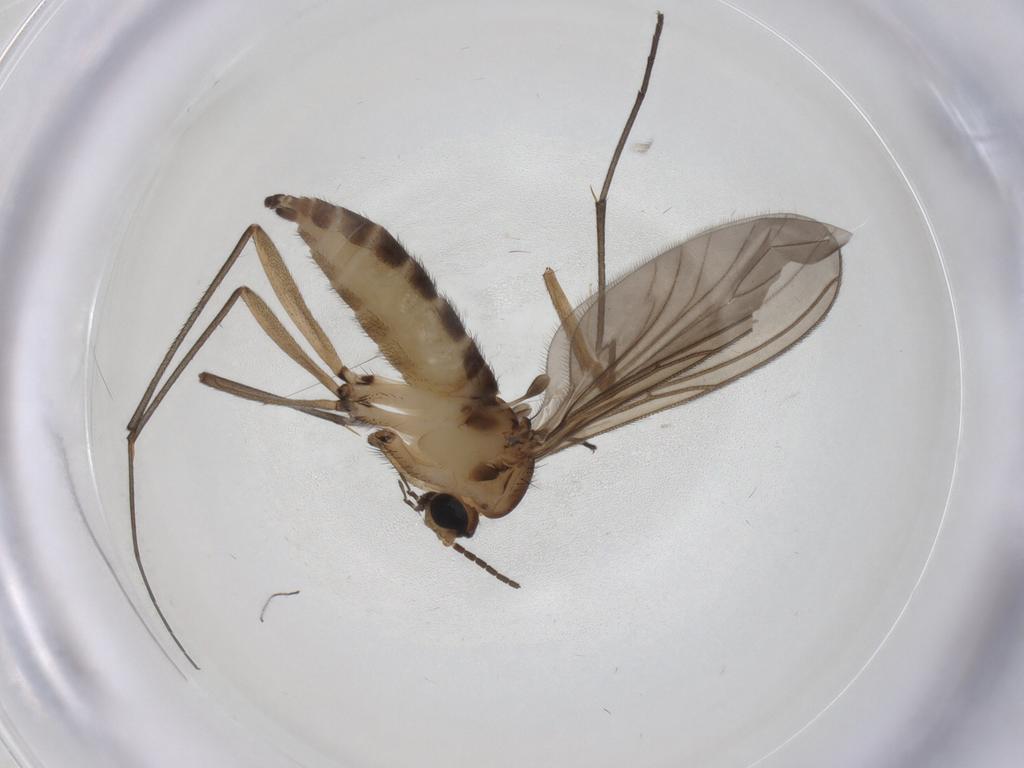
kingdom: Animalia
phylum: Arthropoda
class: Insecta
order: Diptera
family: Sciaridae
